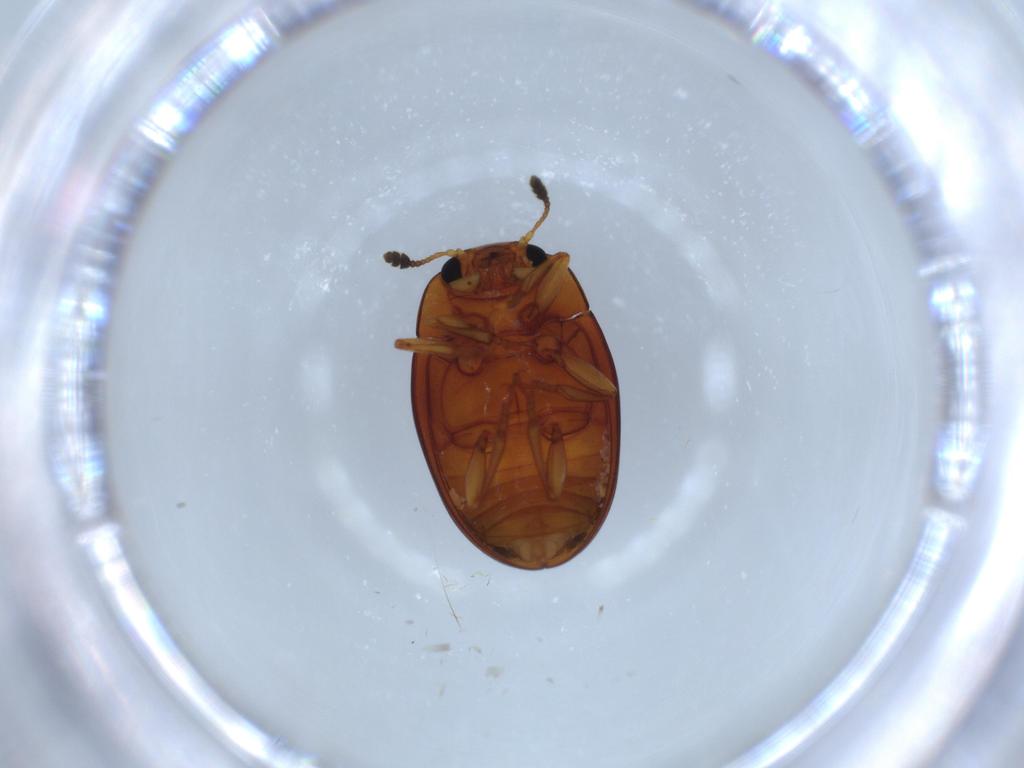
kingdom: Animalia
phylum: Arthropoda
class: Insecta
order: Coleoptera
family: Erotylidae
